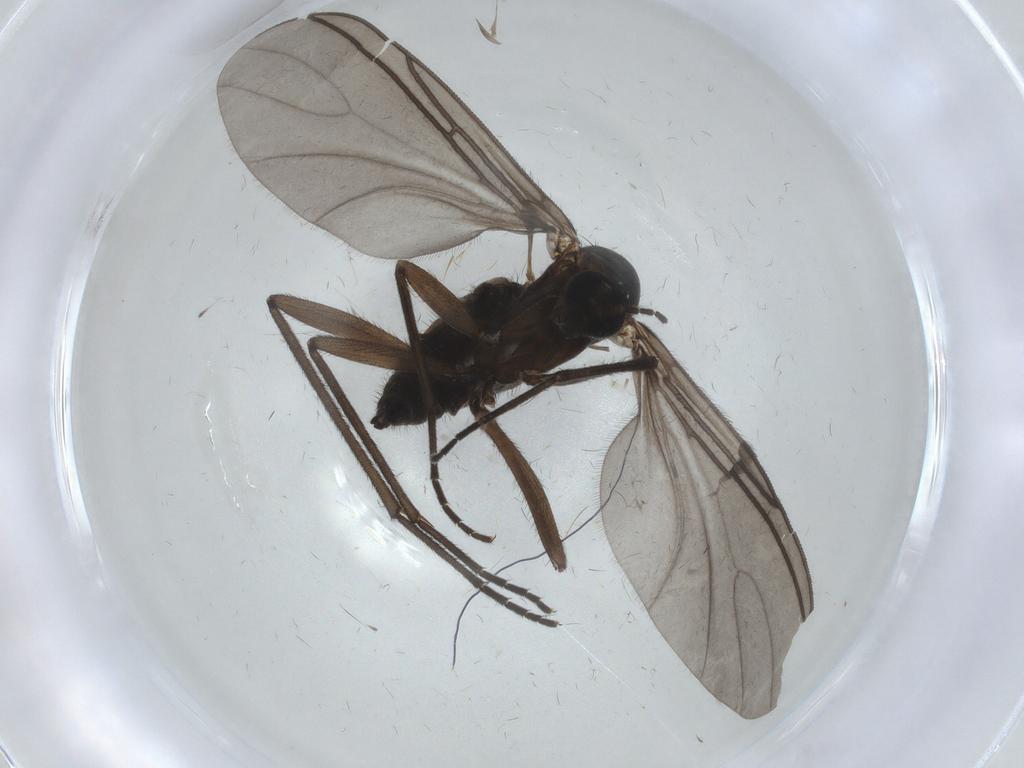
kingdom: Animalia
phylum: Arthropoda
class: Insecta
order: Diptera
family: Sciaridae
